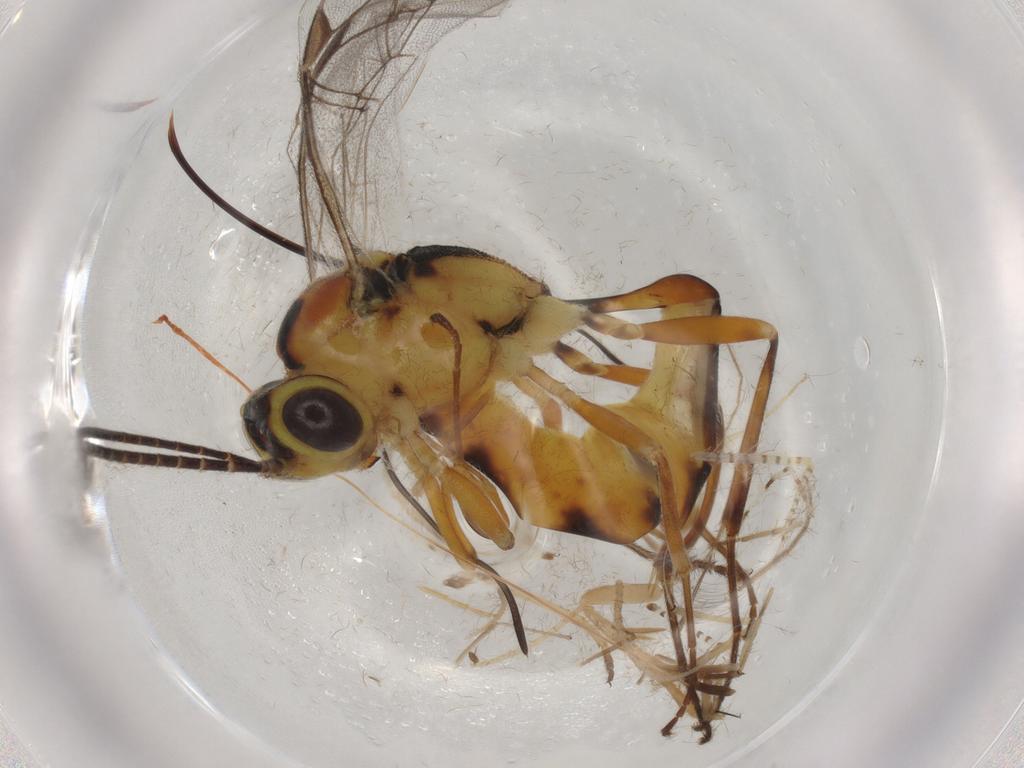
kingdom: Animalia
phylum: Arthropoda
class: Insecta
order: Hymenoptera
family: Ichneumonidae
